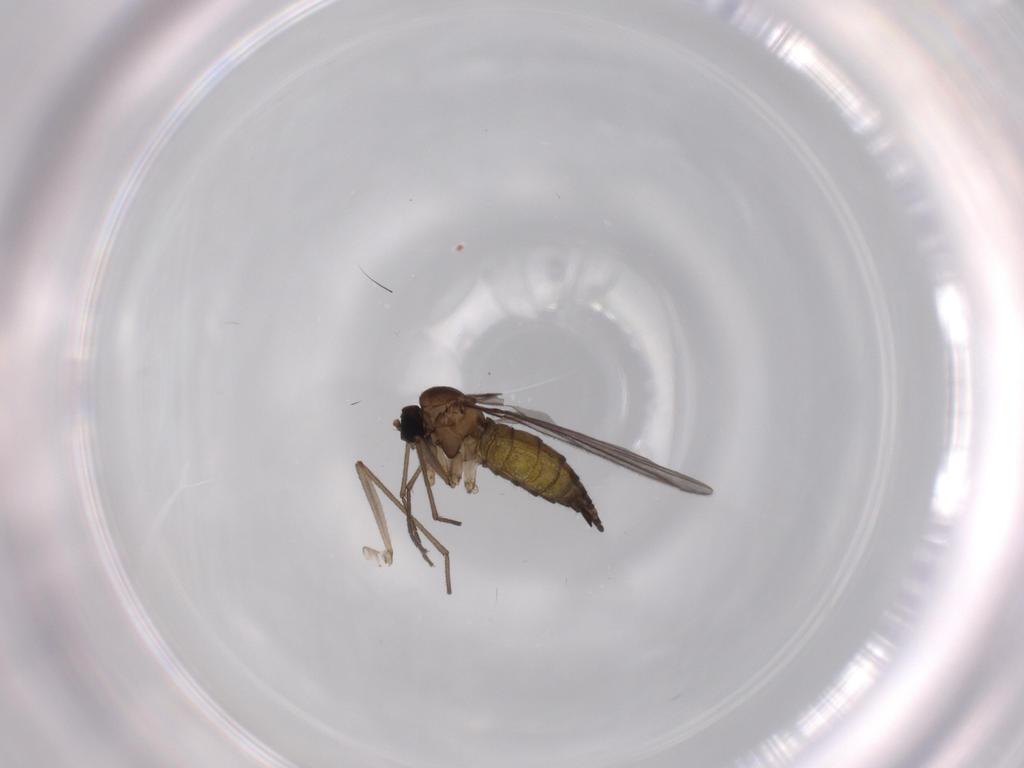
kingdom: Animalia
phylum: Arthropoda
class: Insecta
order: Diptera
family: Sciaridae
